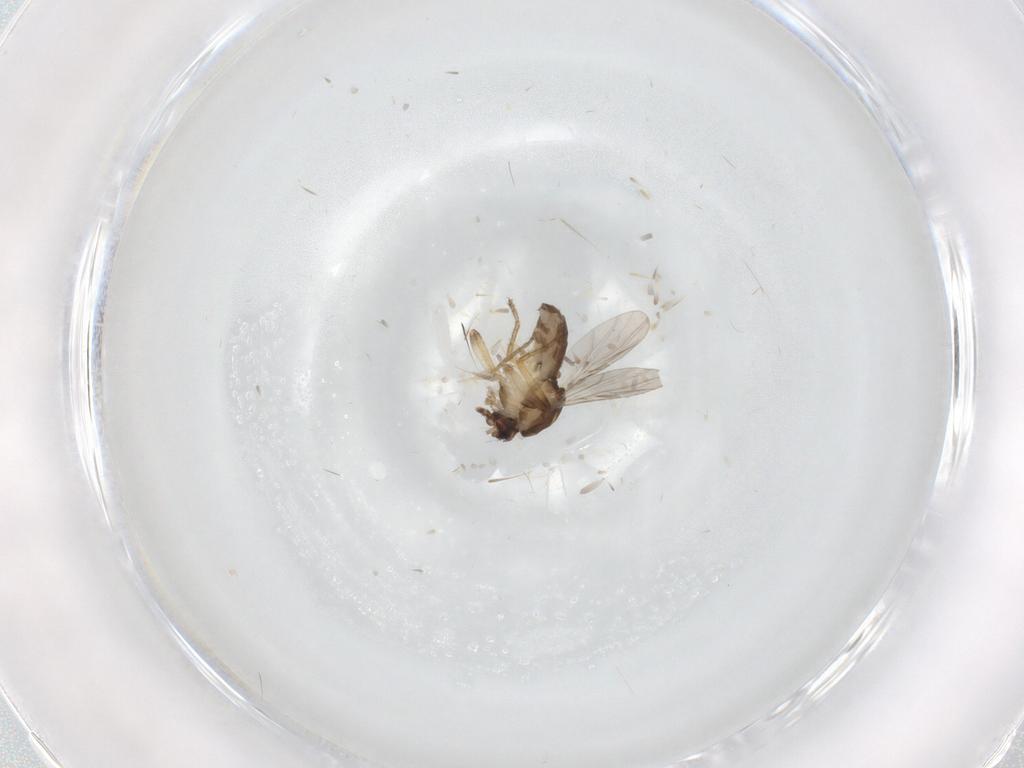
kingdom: Animalia
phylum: Arthropoda
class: Insecta
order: Diptera
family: Ceratopogonidae
